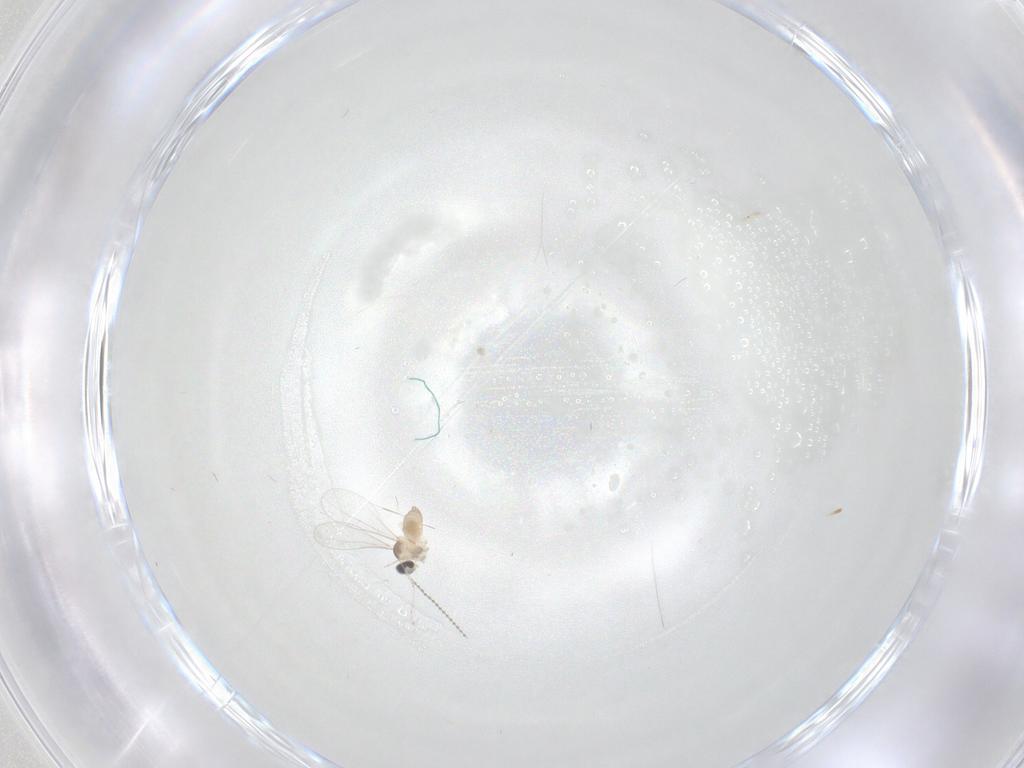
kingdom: Animalia
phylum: Arthropoda
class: Insecta
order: Diptera
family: Cecidomyiidae
